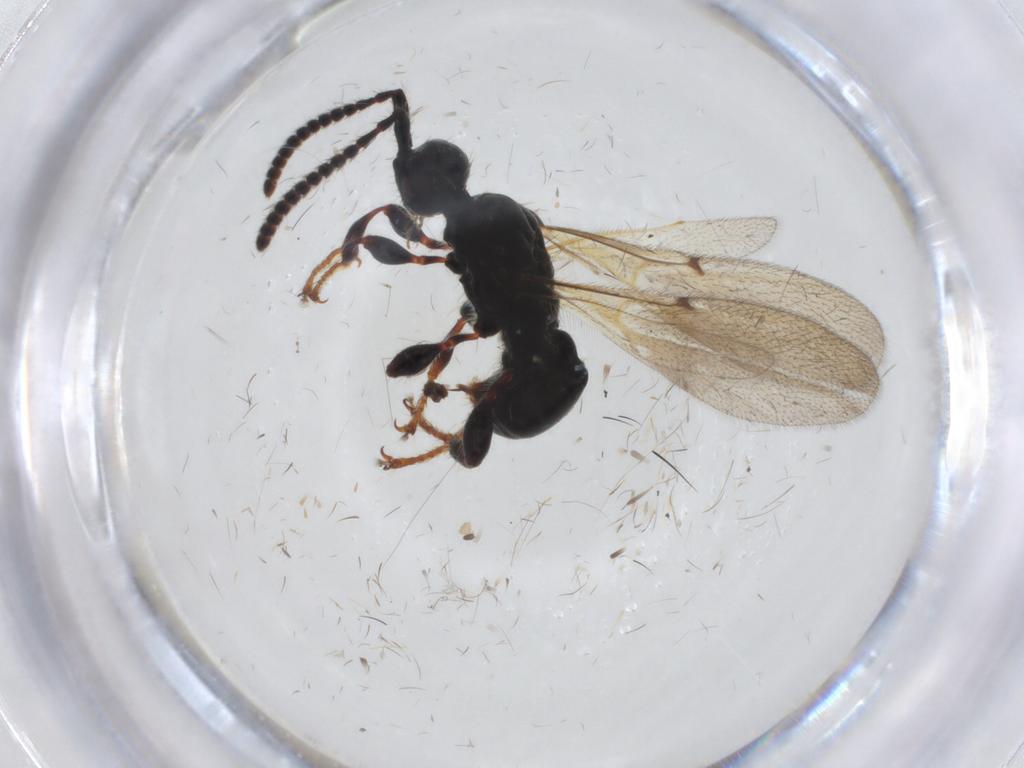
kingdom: Animalia
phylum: Arthropoda
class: Insecta
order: Hymenoptera
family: Diapriidae
